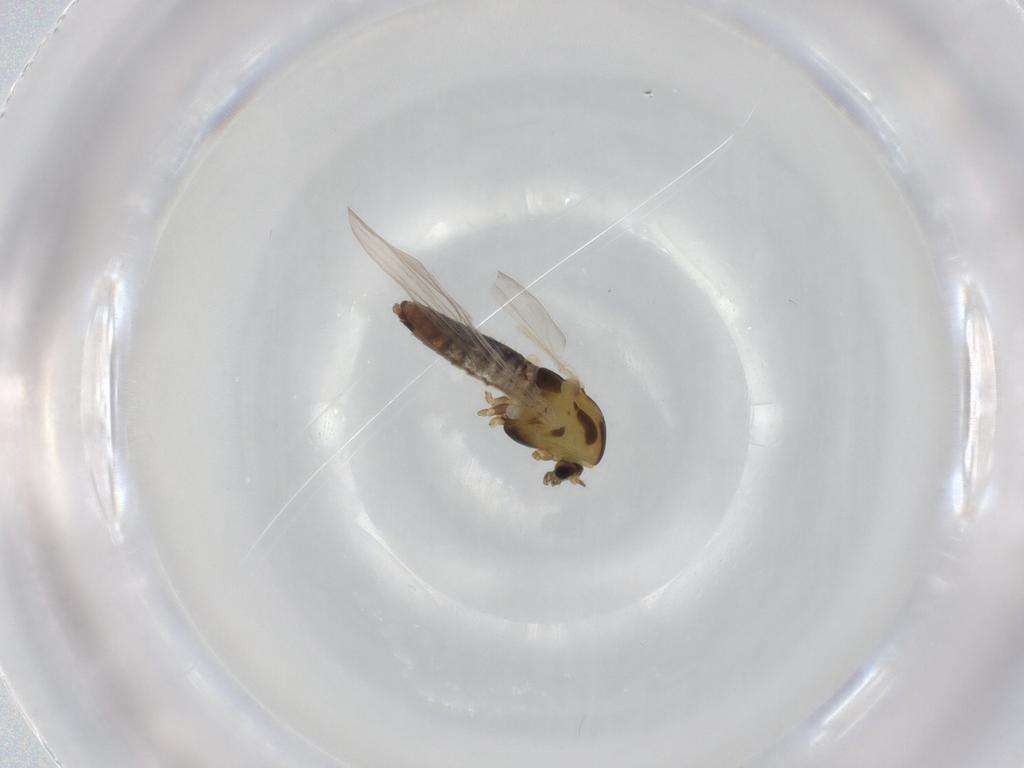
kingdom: Animalia
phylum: Arthropoda
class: Insecta
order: Diptera
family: Chironomidae
